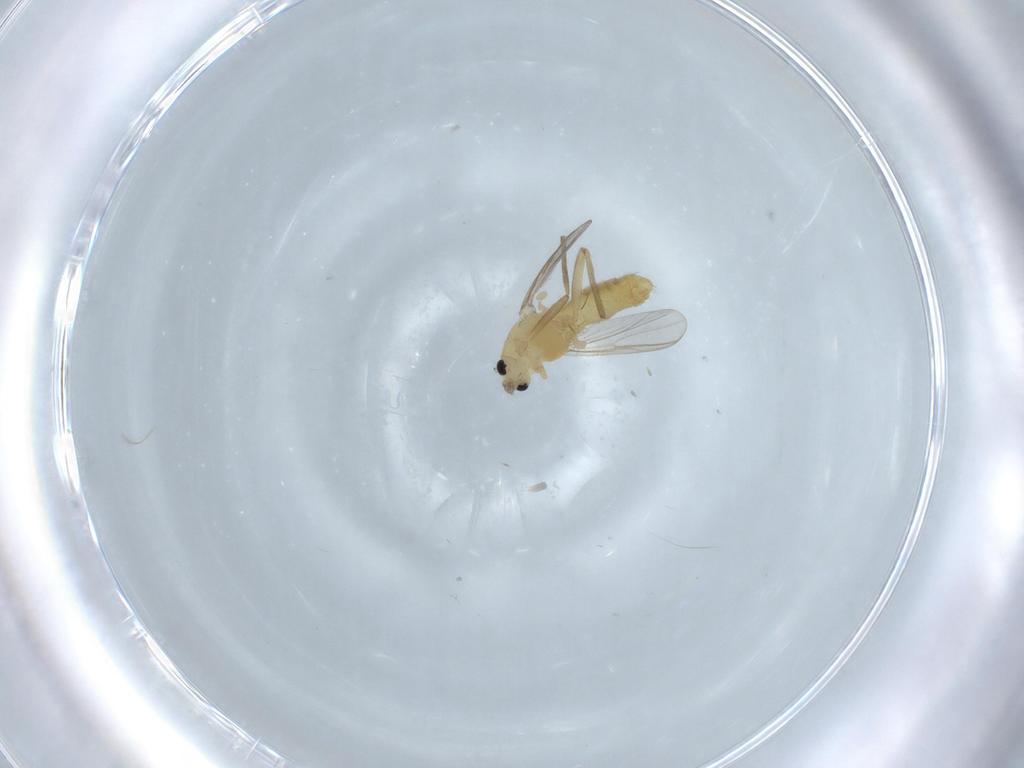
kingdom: Animalia
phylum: Arthropoda
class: Insecta
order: Diptera
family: Chironomidae
